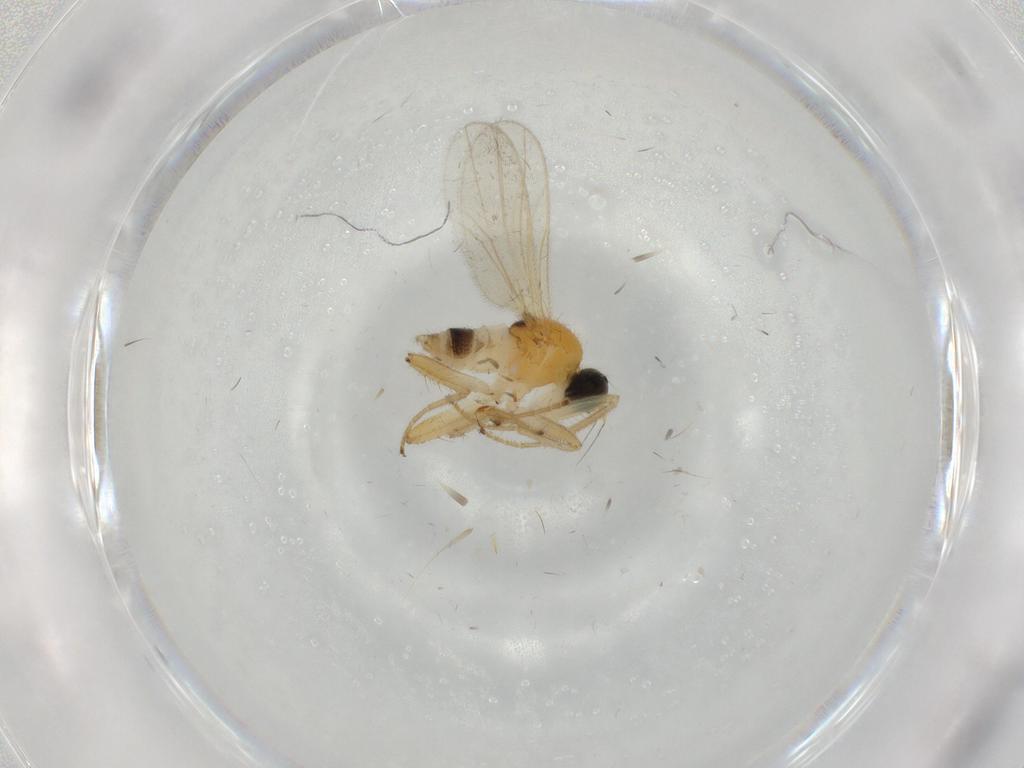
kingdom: Animalia
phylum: Arthropoda
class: Insecta
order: Diptera
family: Hybotidae
